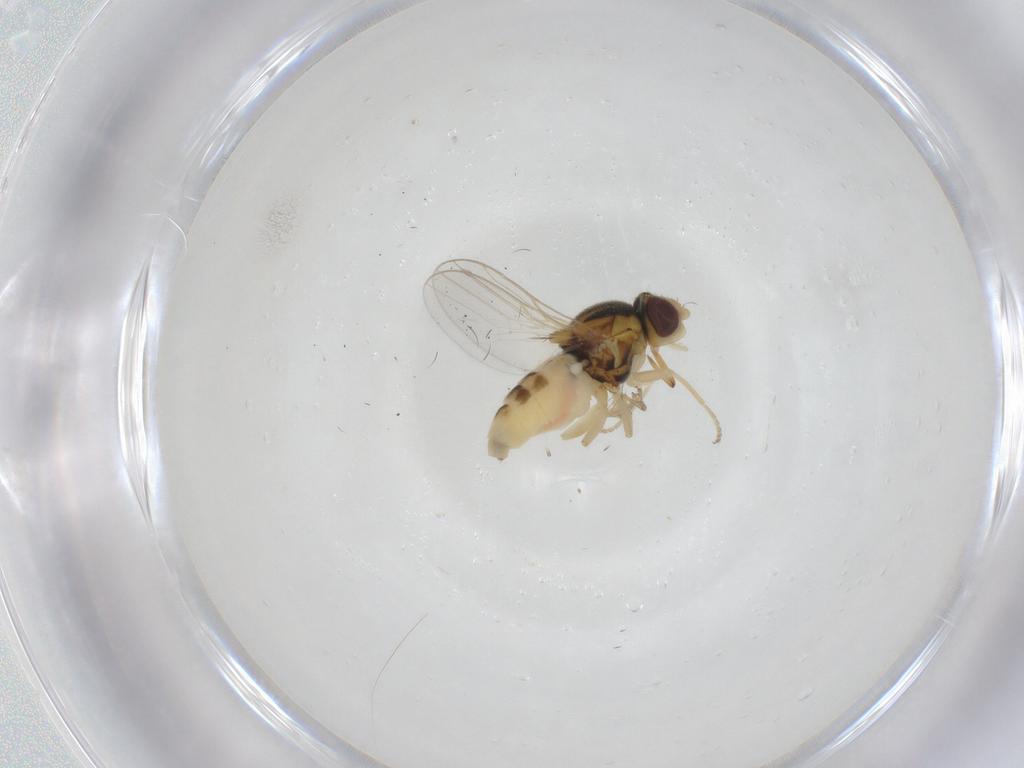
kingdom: Animalia
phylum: Arthropoda
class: Insecta
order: Diptera
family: Chloropidae
